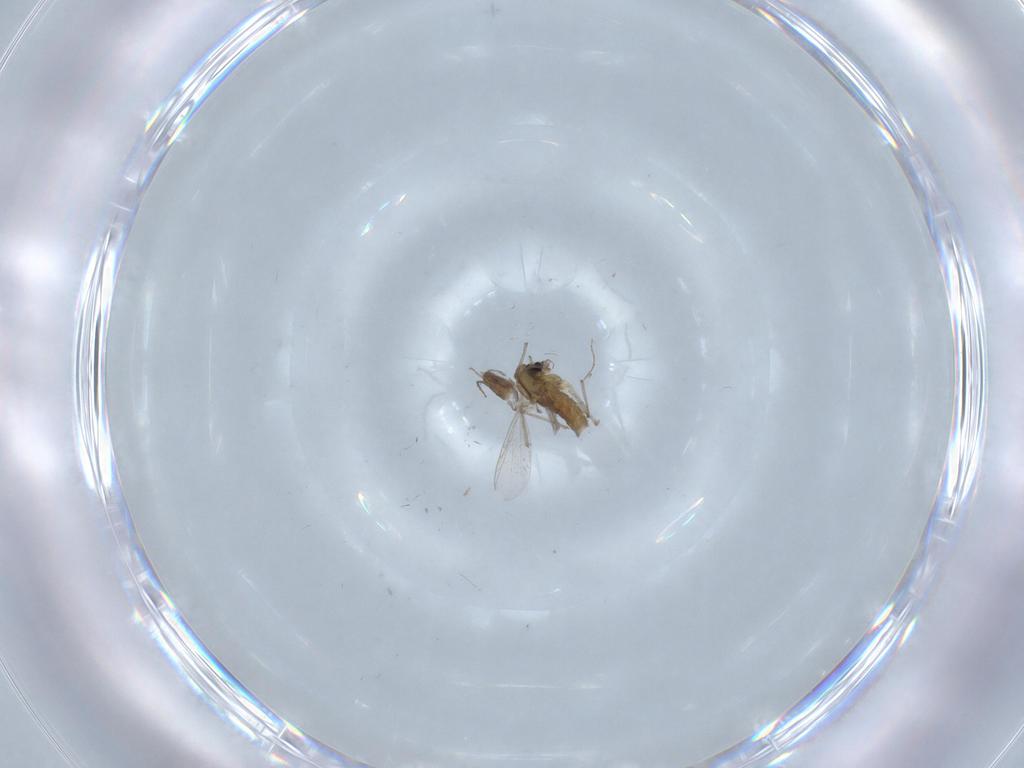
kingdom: Animalia
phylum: Arthropoda
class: Insecta
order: Diptera
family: Chironomidae
